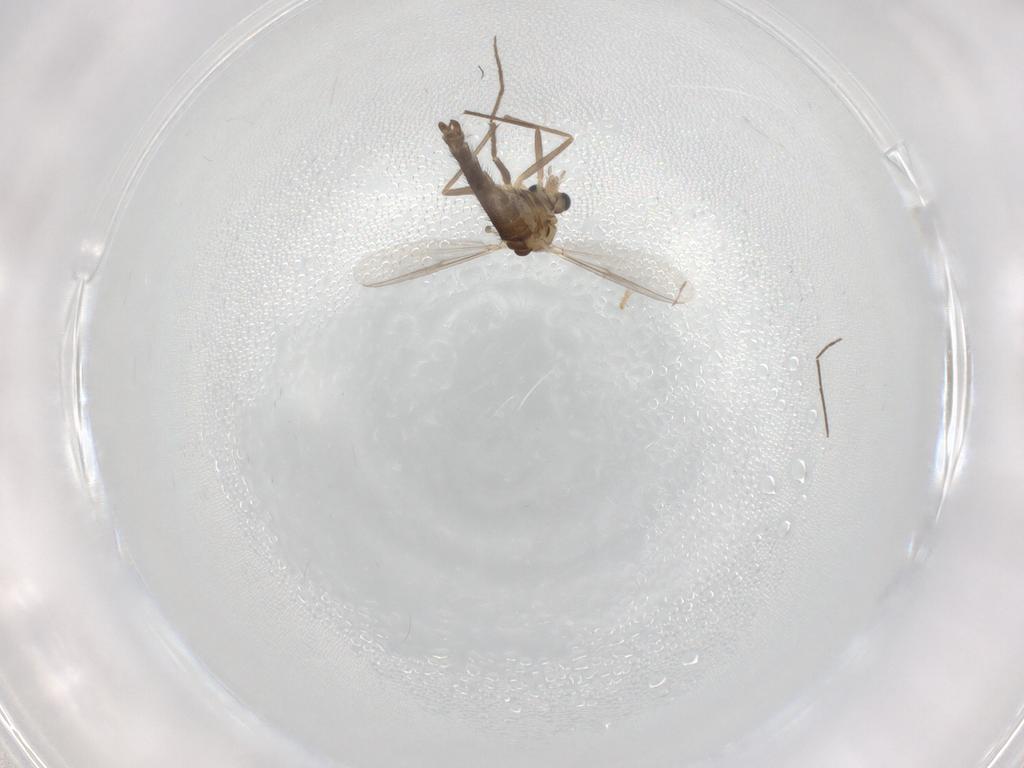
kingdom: Animalia
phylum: Arthropoda
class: Insecta
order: Diptera
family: Chironomidae
